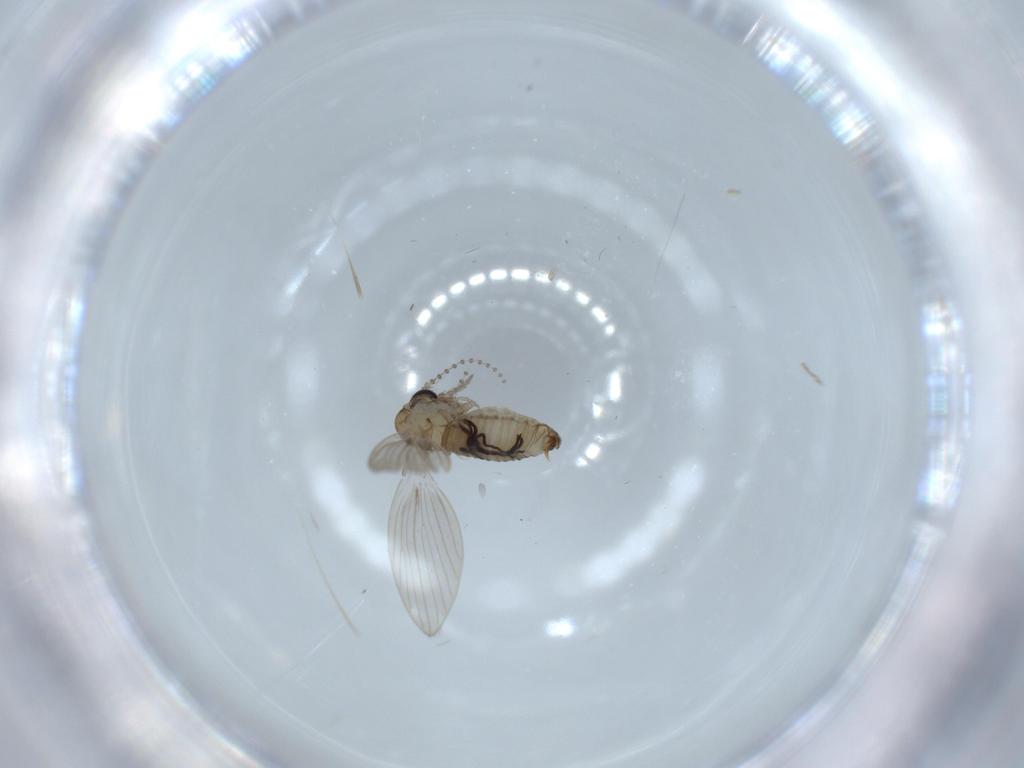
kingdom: Animalia
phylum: Arthropoda
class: Insecta
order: Diptera
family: Psychodidae
